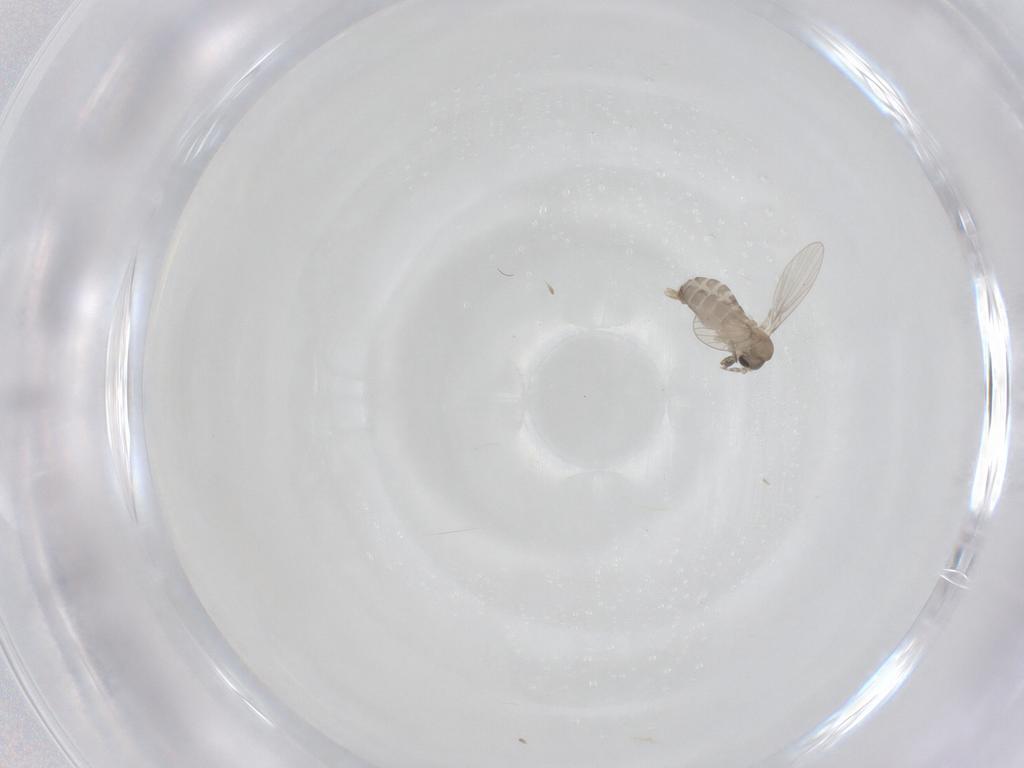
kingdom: Animalia
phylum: Arthropoda
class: Insecta
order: Diptera
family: Psychodidae
